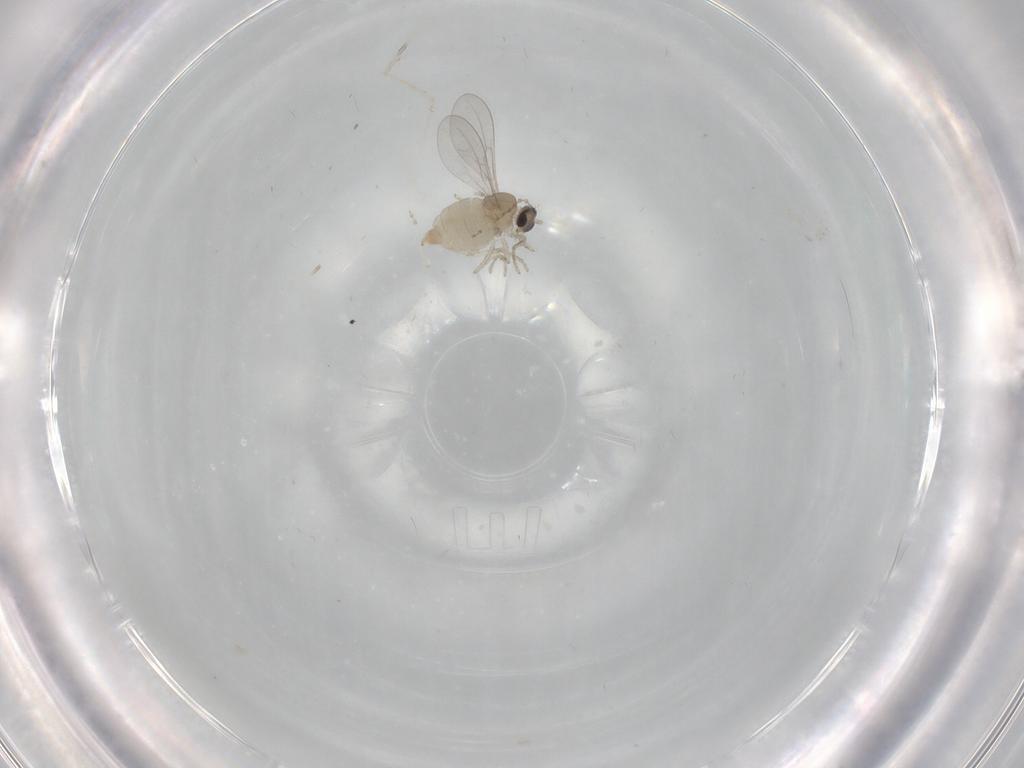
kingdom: Animalia
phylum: Arthropoda
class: Insecta
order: Diptera
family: Cecidomyiidae
